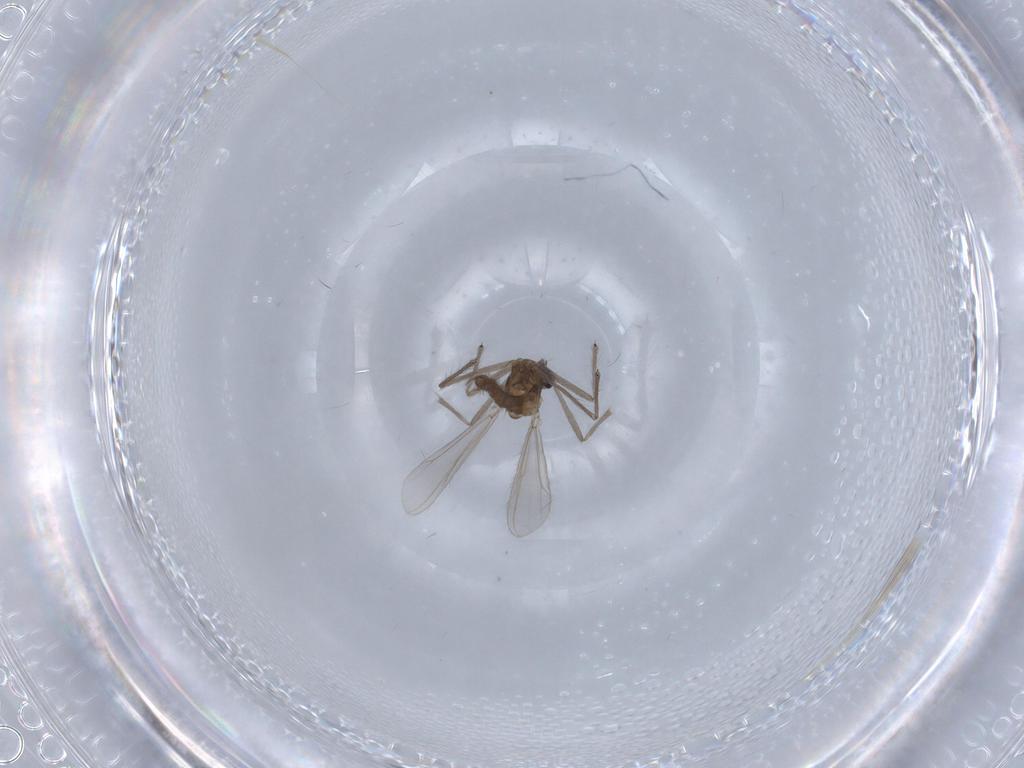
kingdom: Animalia
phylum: Arthropoda
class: Insecta
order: Diptera
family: Chironomidae
